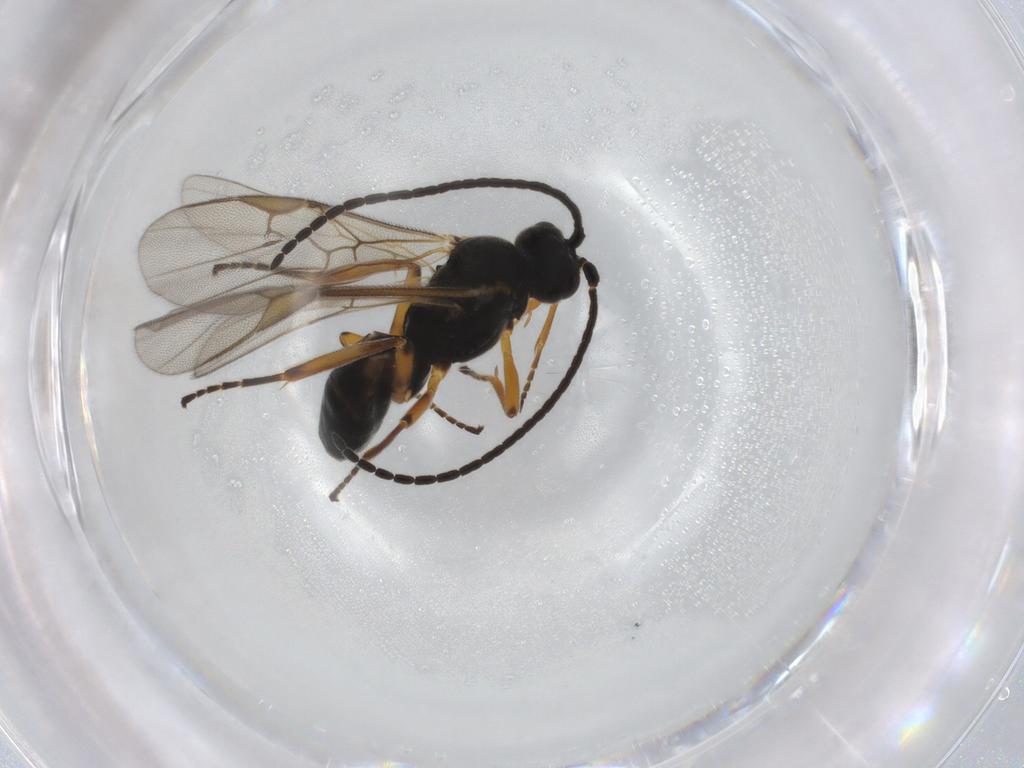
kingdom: Animalia
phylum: Arthropoda
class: Insecta
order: Hymenoptera
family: Braconidae
